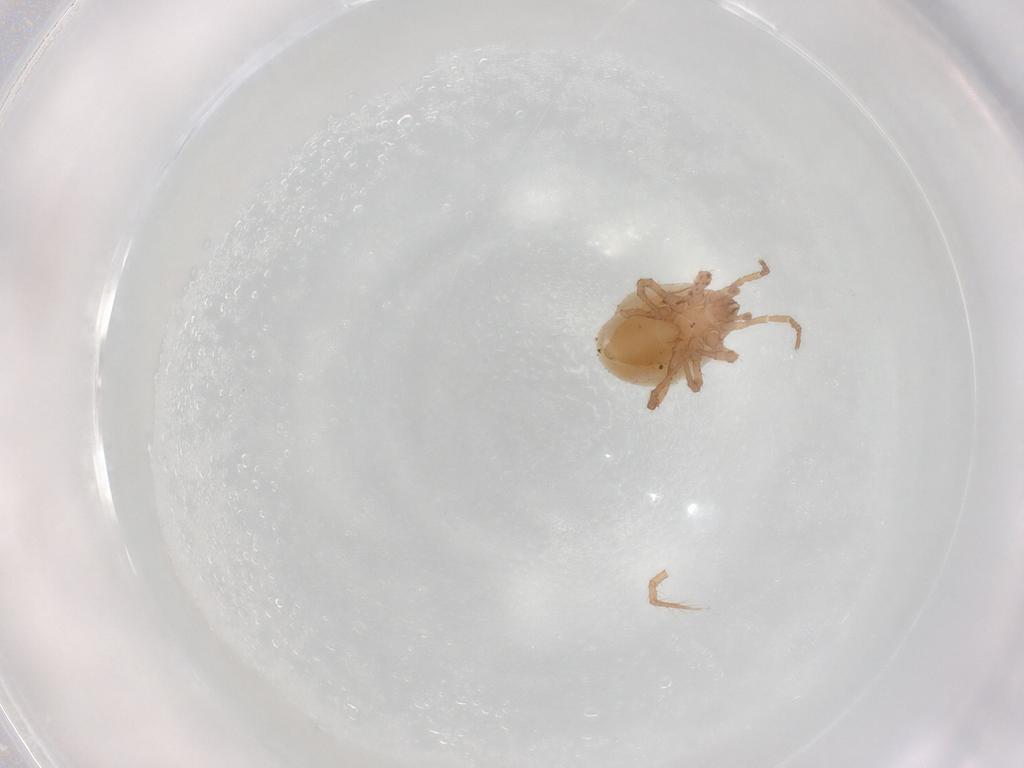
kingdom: Animalia
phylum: Arthropoda
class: Arachnida
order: Mesostigmata
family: Parasitidae
